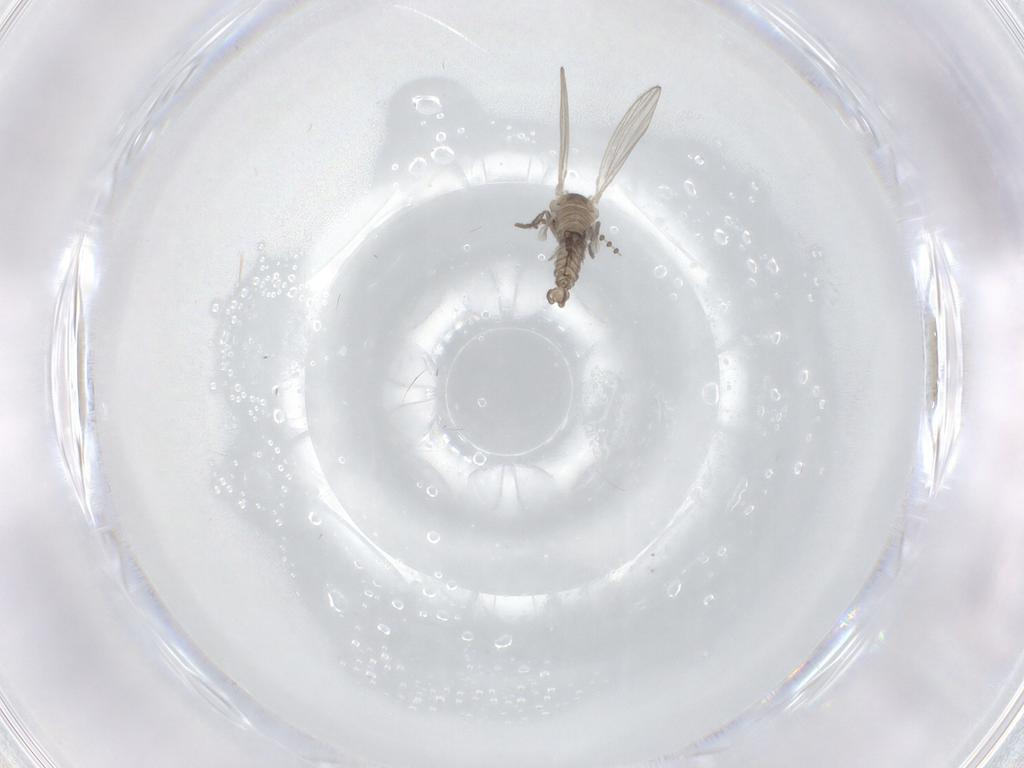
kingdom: Animalia
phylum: Arthropoda
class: Insecta
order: Diptera
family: Psychodidae
